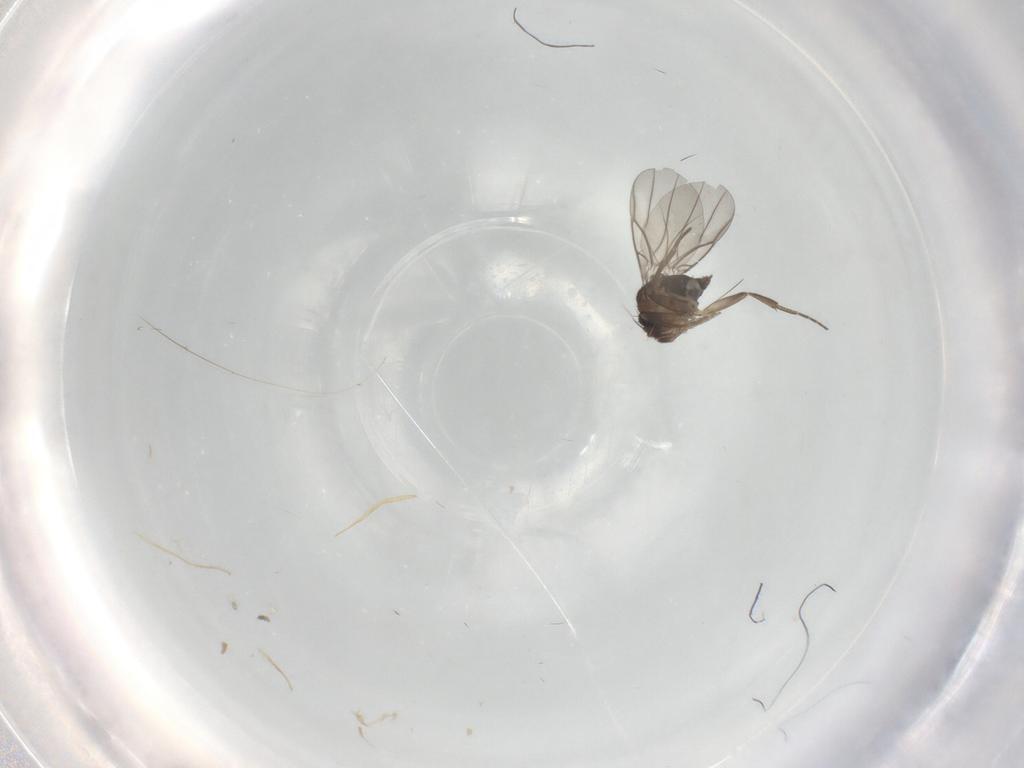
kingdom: Animalia
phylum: Arthropoda
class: Insecta
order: Diptera
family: Phoridae
